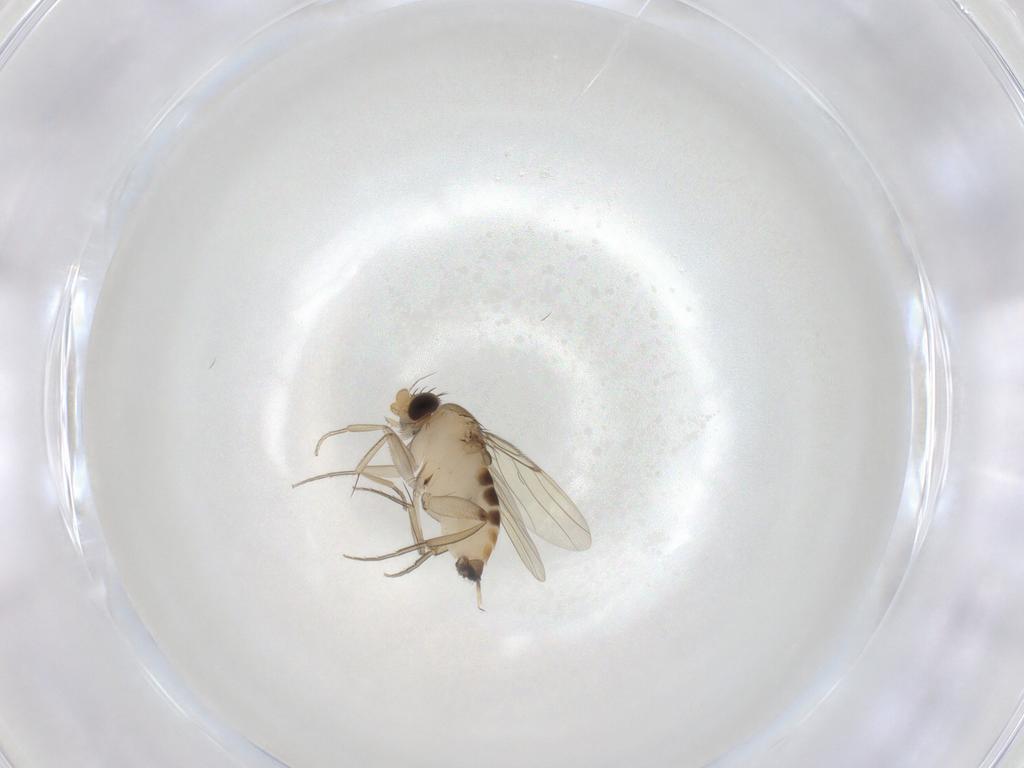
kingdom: Animalia
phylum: Arthropoda
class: Insecta
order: Diptera
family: Phoridae
